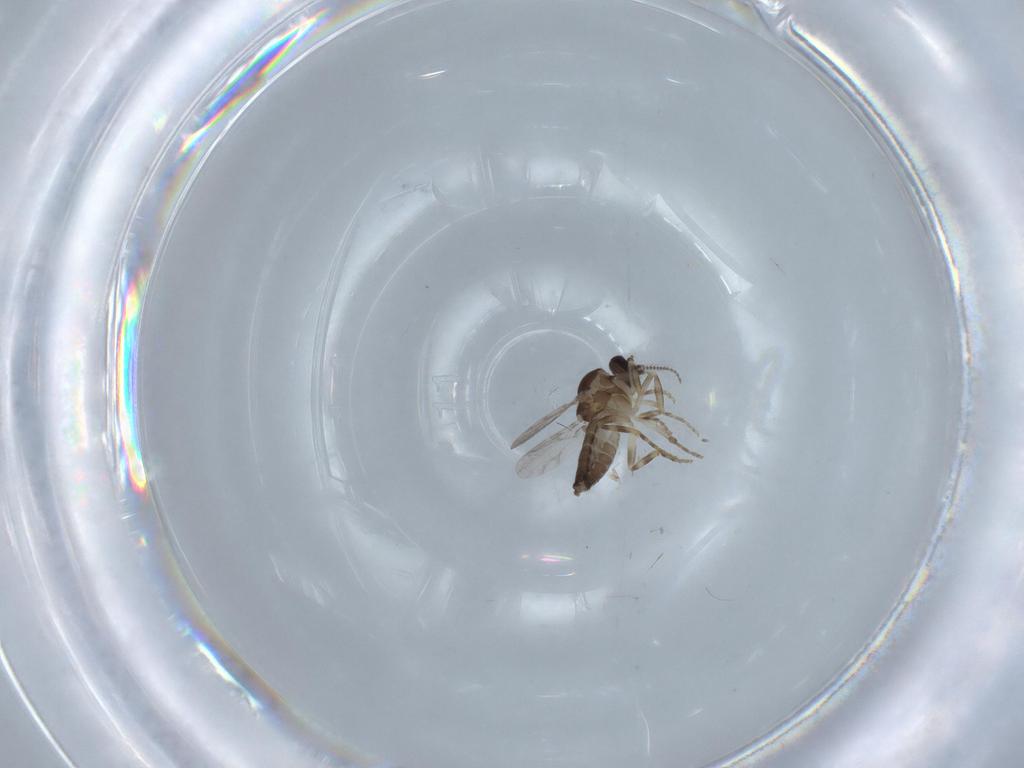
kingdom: Animalia
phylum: Arthropoda
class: Insecta
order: Diptera
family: Ceratopogonidae
